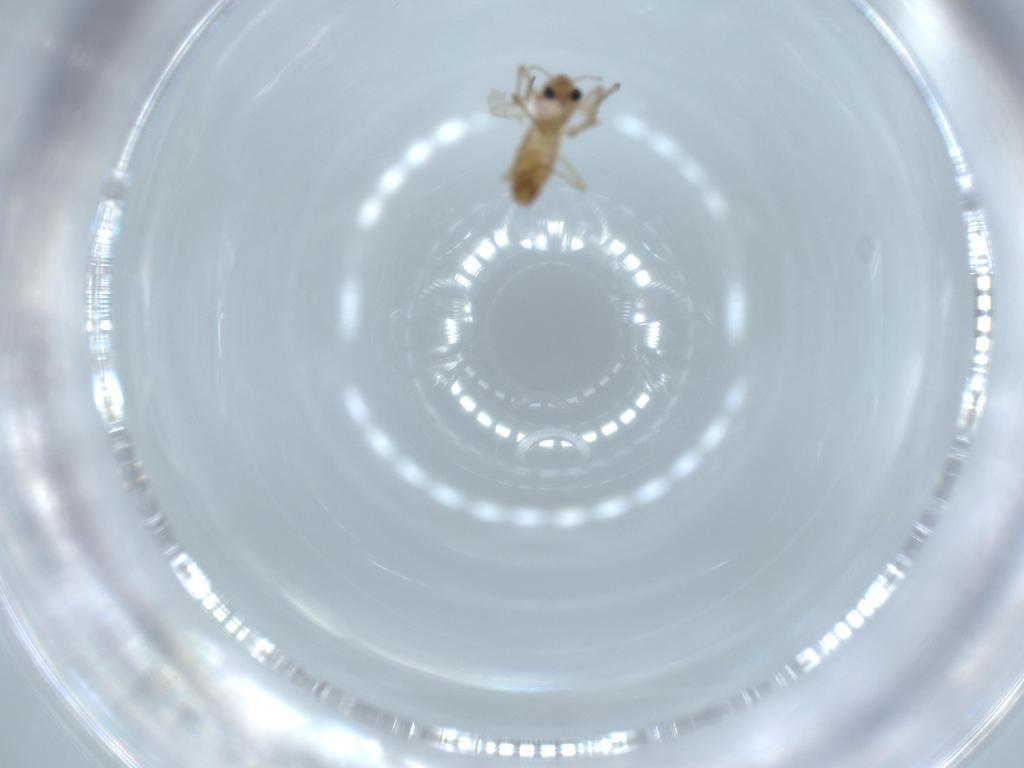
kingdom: Animalia
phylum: Arthropoda
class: Insecta
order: Diptera
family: Chironomidae
